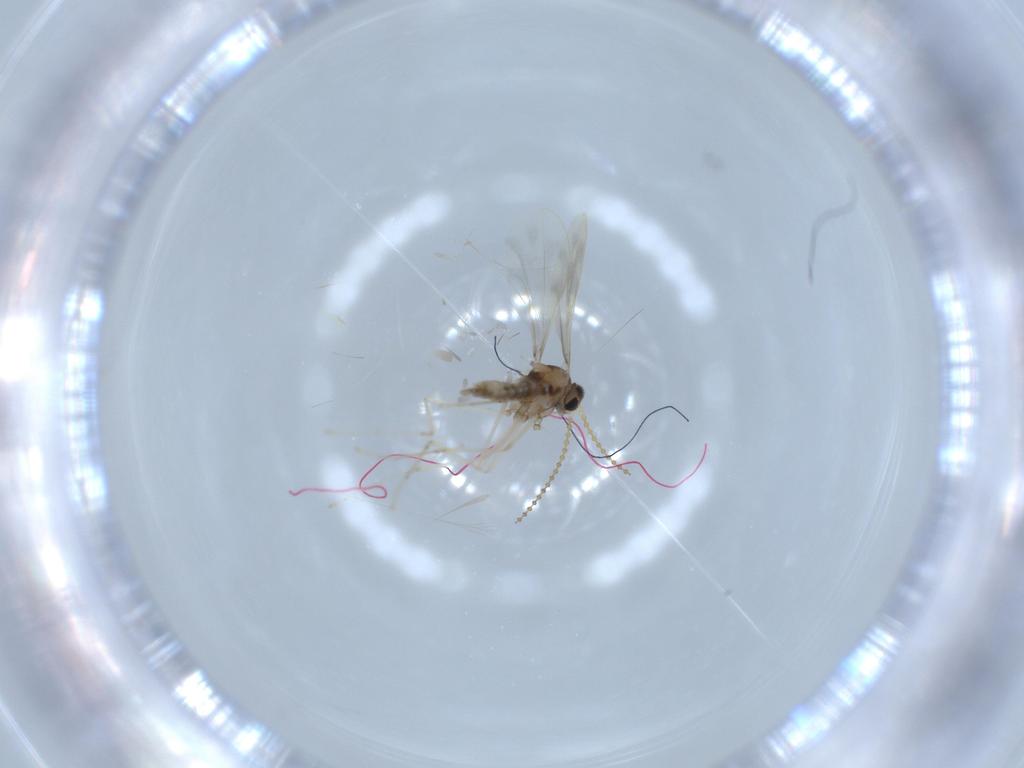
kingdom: Animalia
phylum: Arthropoda
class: Insecta
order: Diptera
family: Cecidomyiidae
